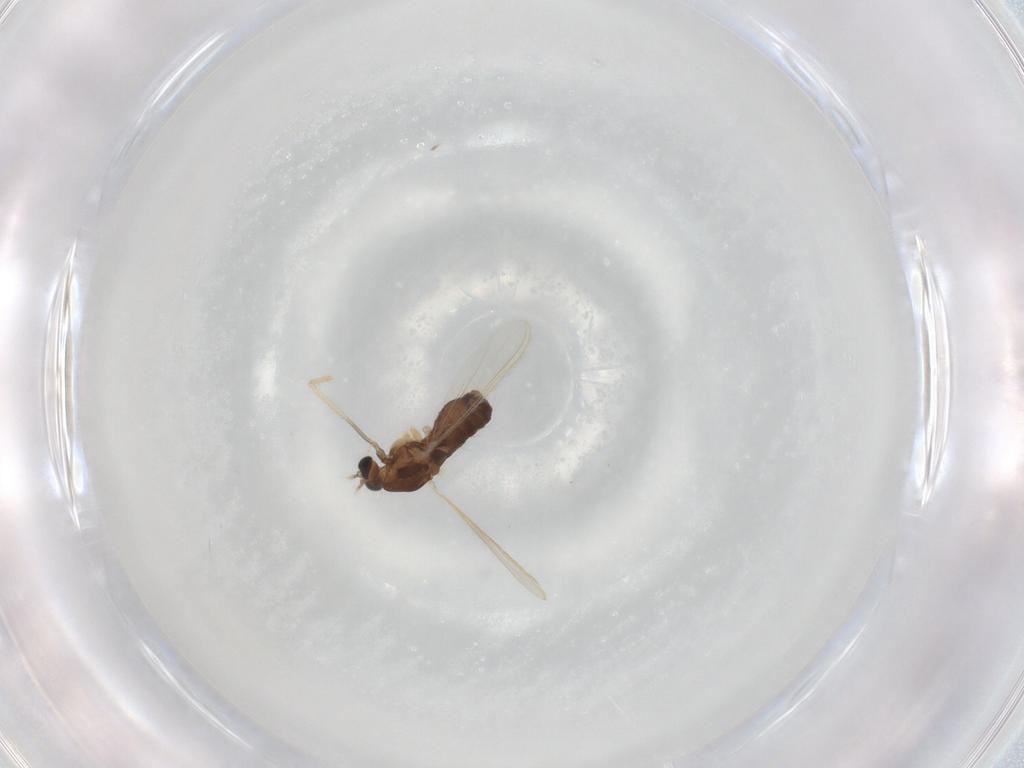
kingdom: Animalia
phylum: Arthropoda
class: Insecta
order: Diptera
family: Chironomidae
